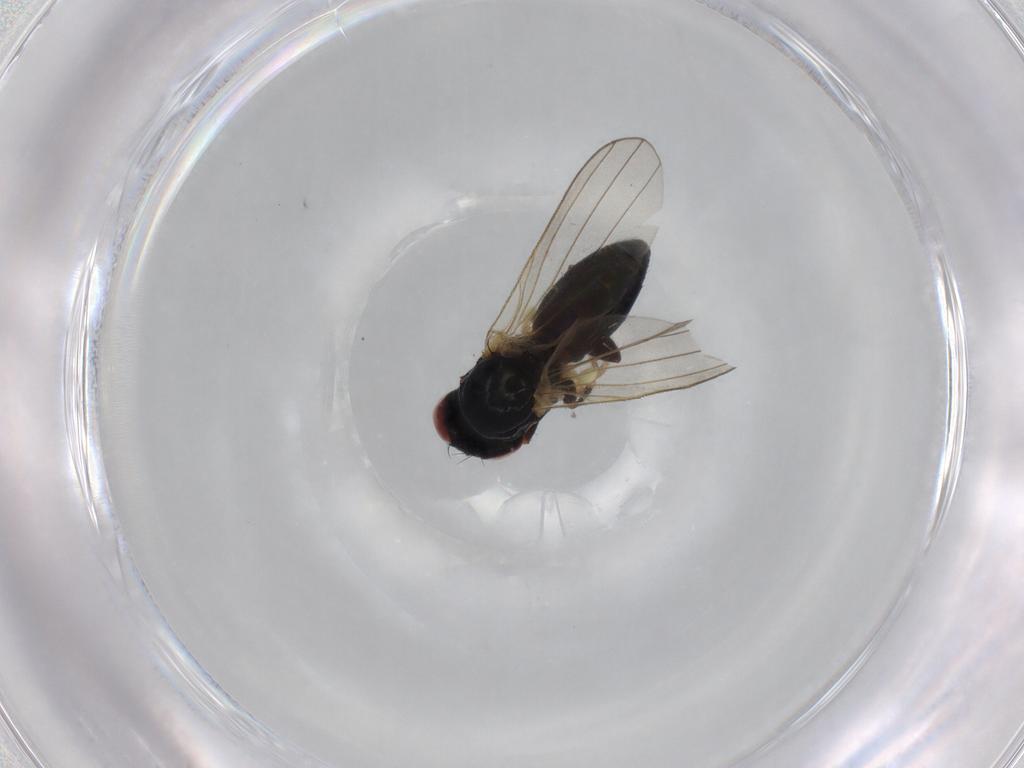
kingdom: Animalia
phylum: Arthropoda
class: Insecta
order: Diptera
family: Chamaemyiidae
